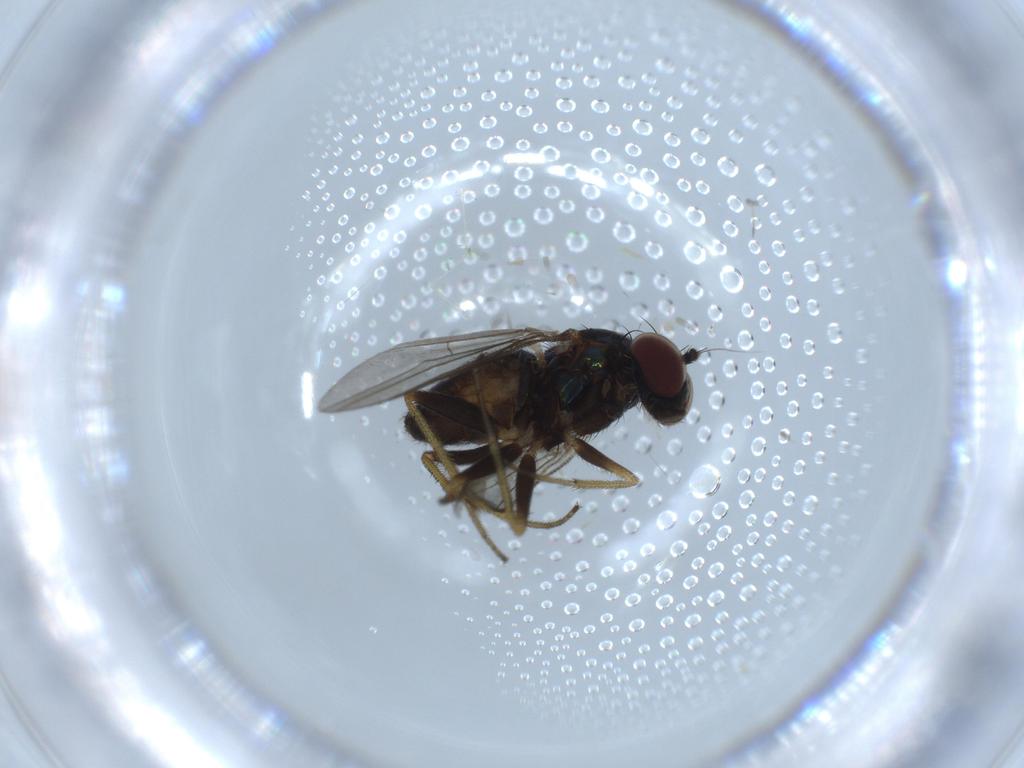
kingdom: Animalia
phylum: Arthropoda
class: Insecta
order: Diptera
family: Dolichopodidae
